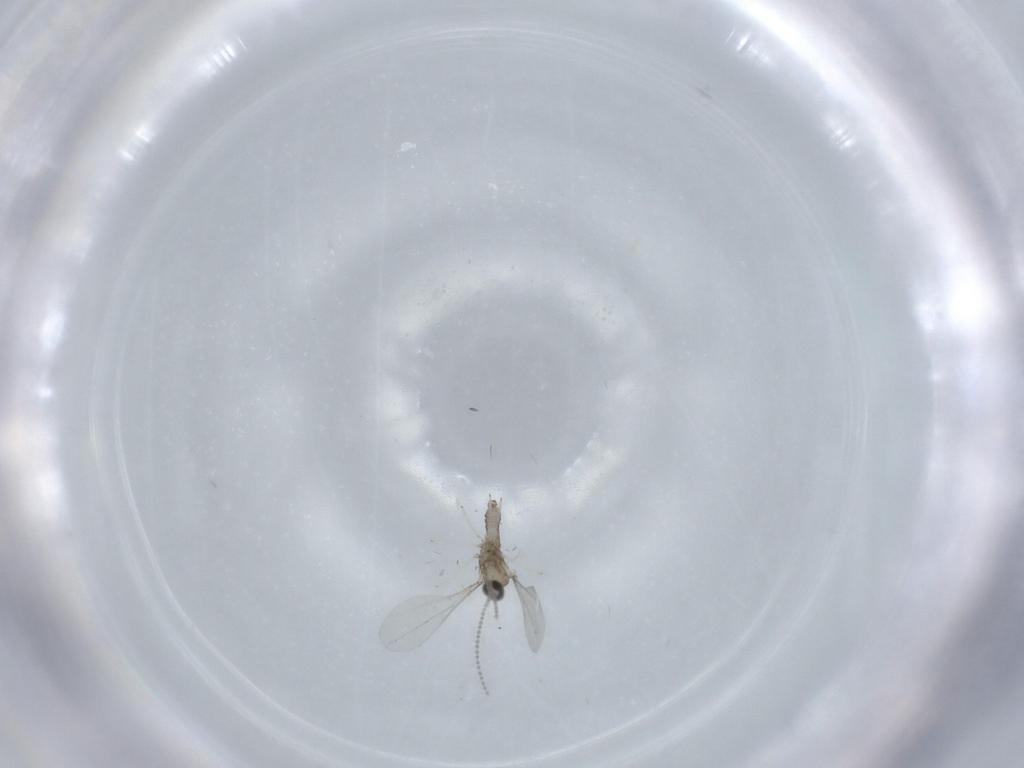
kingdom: Animalia
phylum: Arthropoda
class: Insecta
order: Diptera
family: Cecidomyiidae
